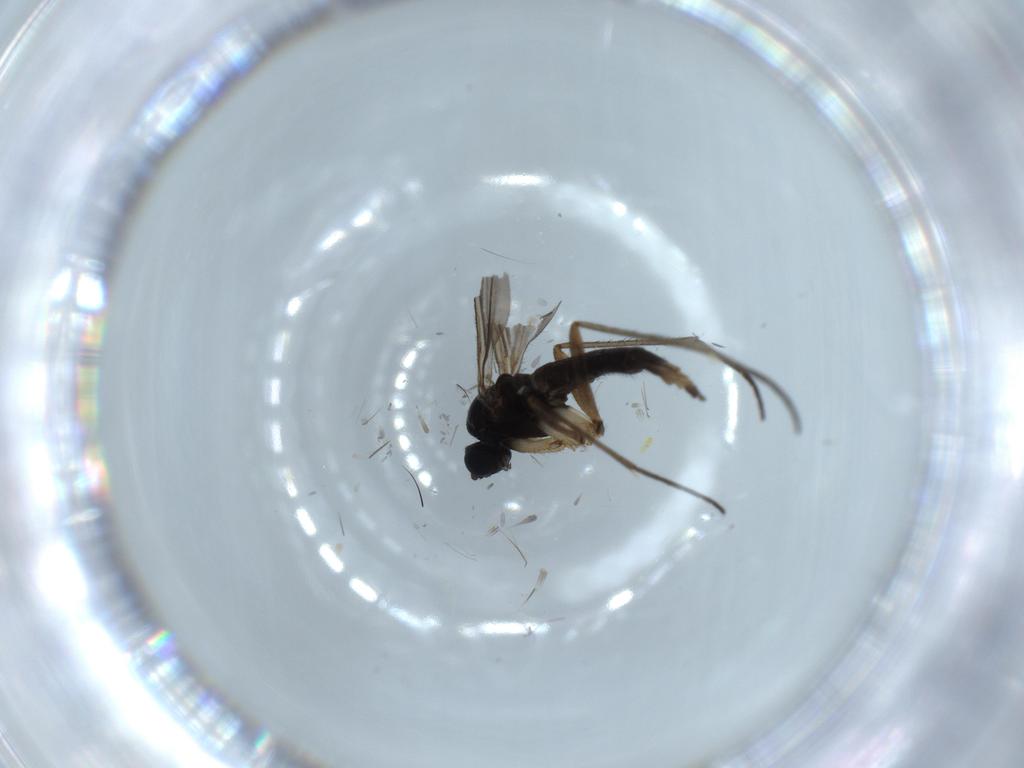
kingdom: Animalia
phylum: Arthropoda
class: Insecta
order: Diptera
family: Sciaridae
